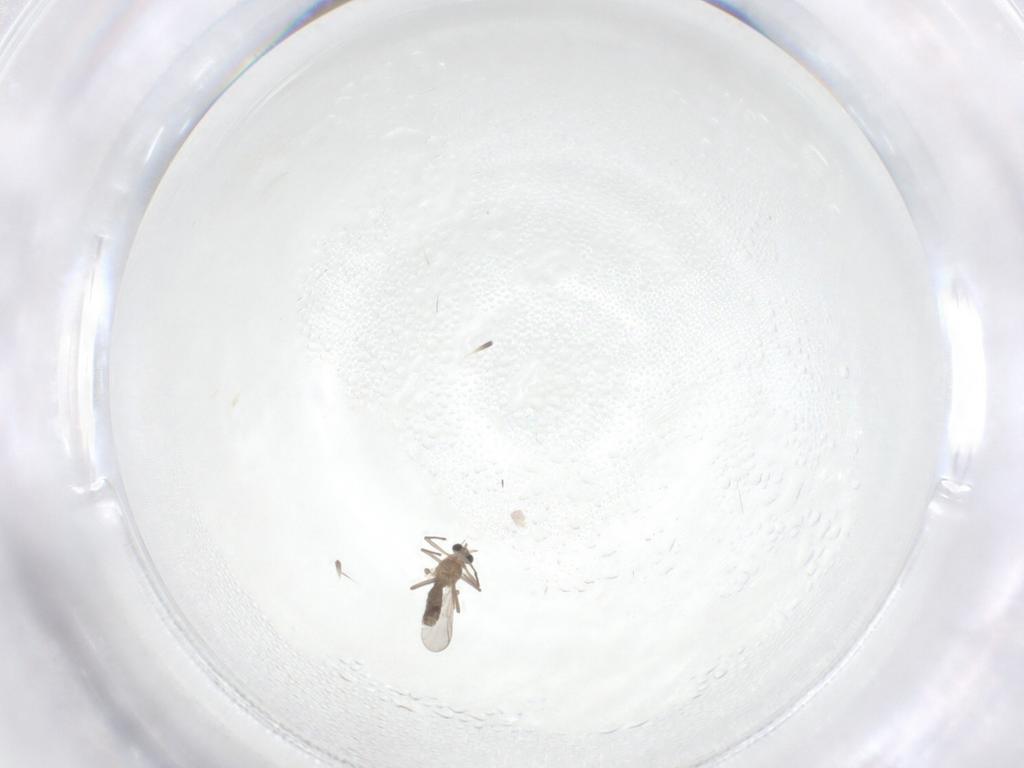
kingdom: Animalia
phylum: Arthropoda
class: Insecta
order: Diptera
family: Chironomidae
